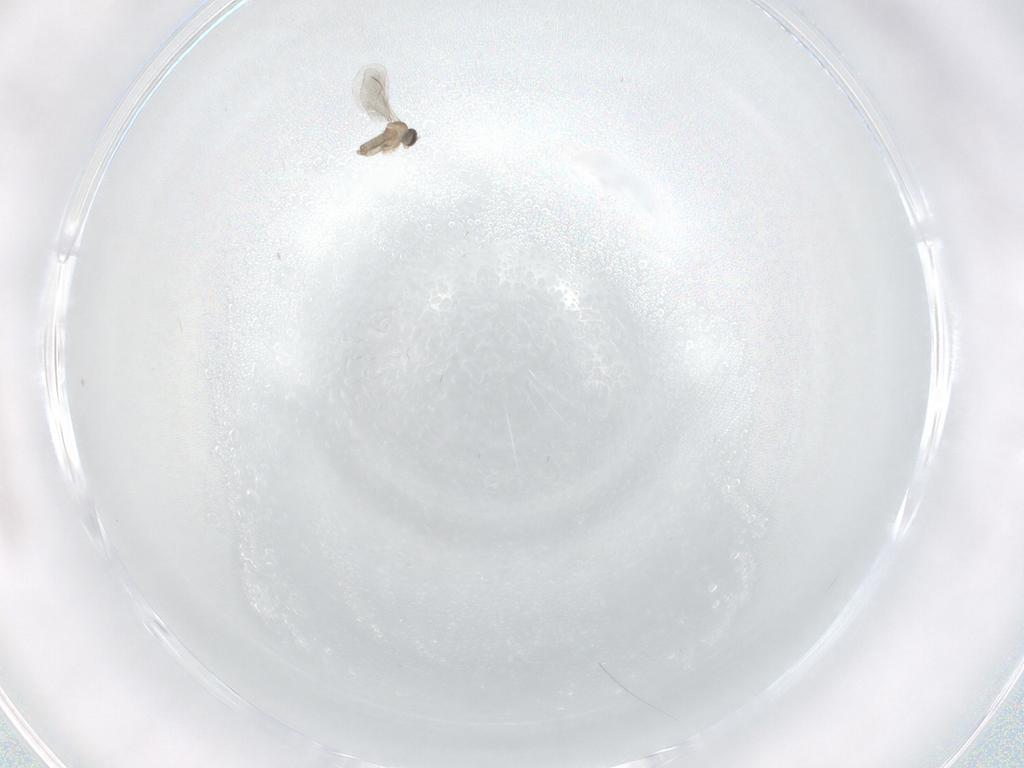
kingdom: Animalia
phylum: Arthropoda
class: Insecta
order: Diptera
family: Cecidomyiidae
